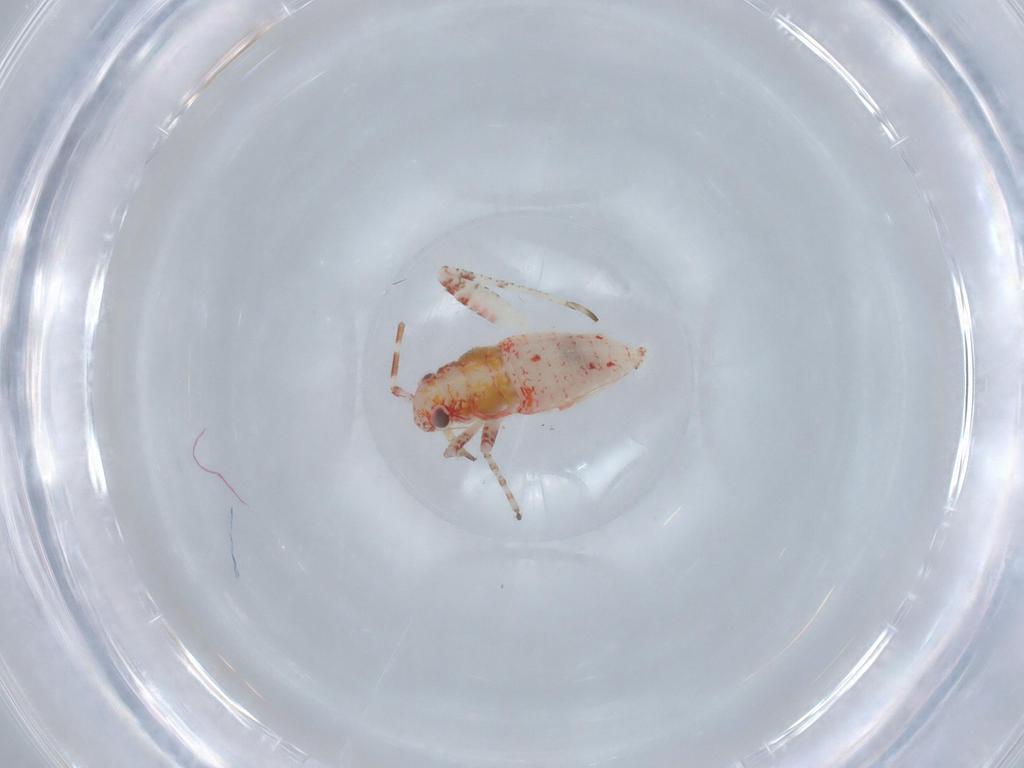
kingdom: Animalia
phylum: Arthropoda
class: Insecta
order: Hemiptera
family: Miridae
